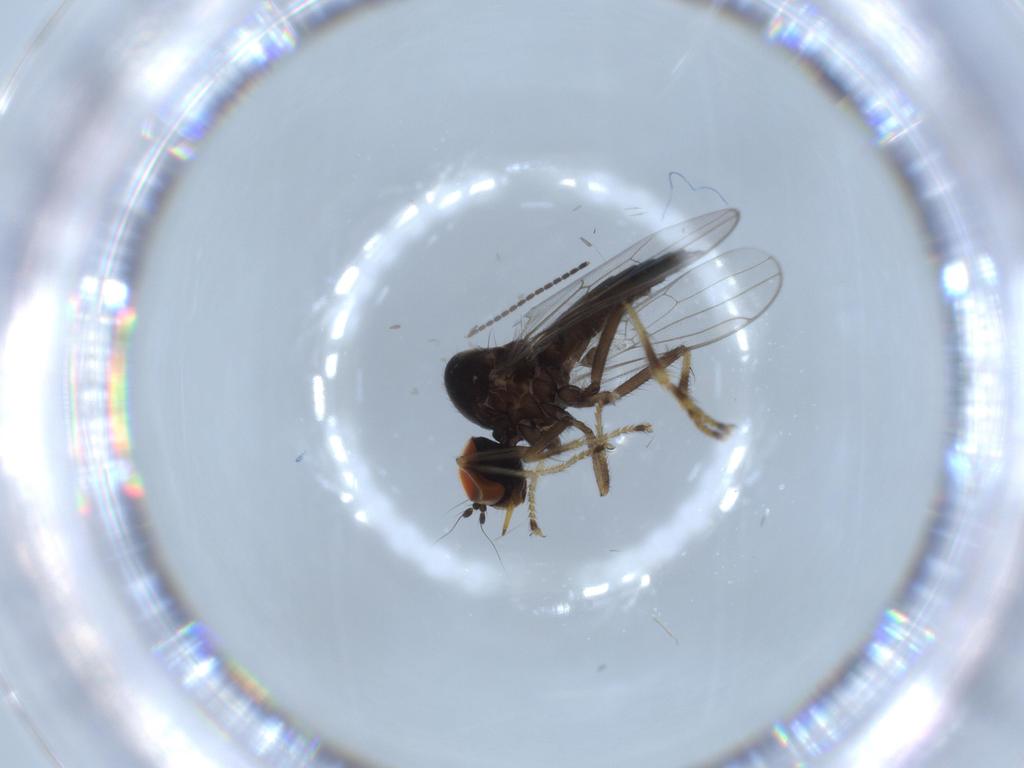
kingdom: Animalia
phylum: Arthropoda
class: Insecta
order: Diptera
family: Hybotidae
